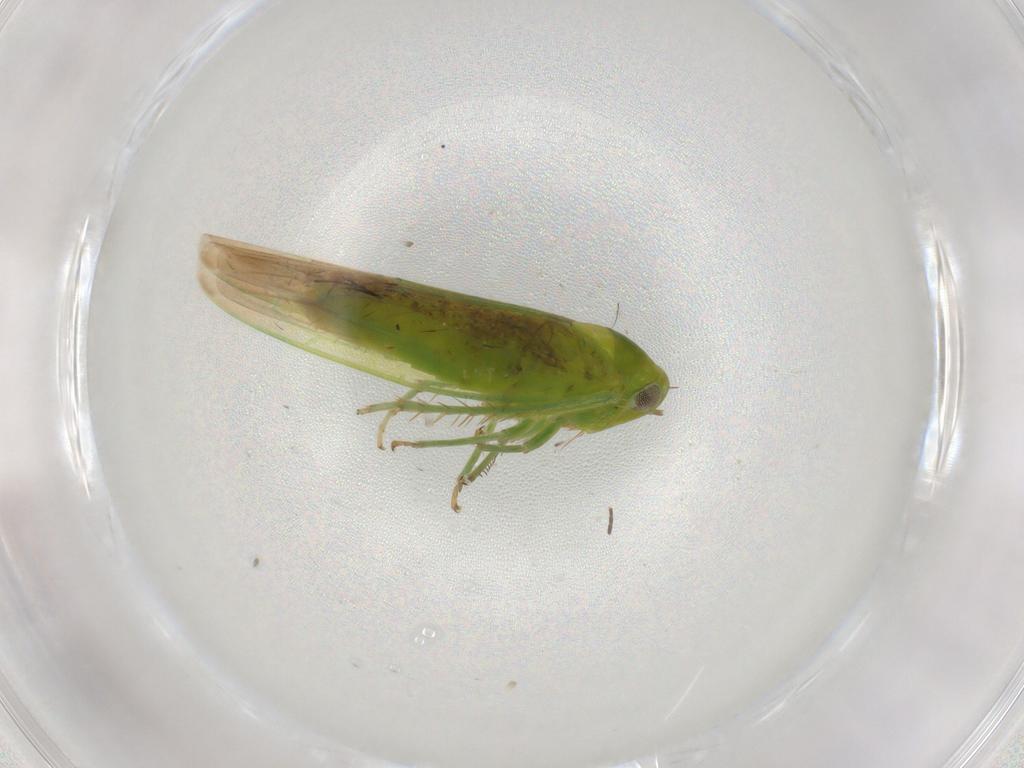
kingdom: Animalia
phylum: Arthropoda
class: Insecta
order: Hemiptera
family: Cicadellidae
